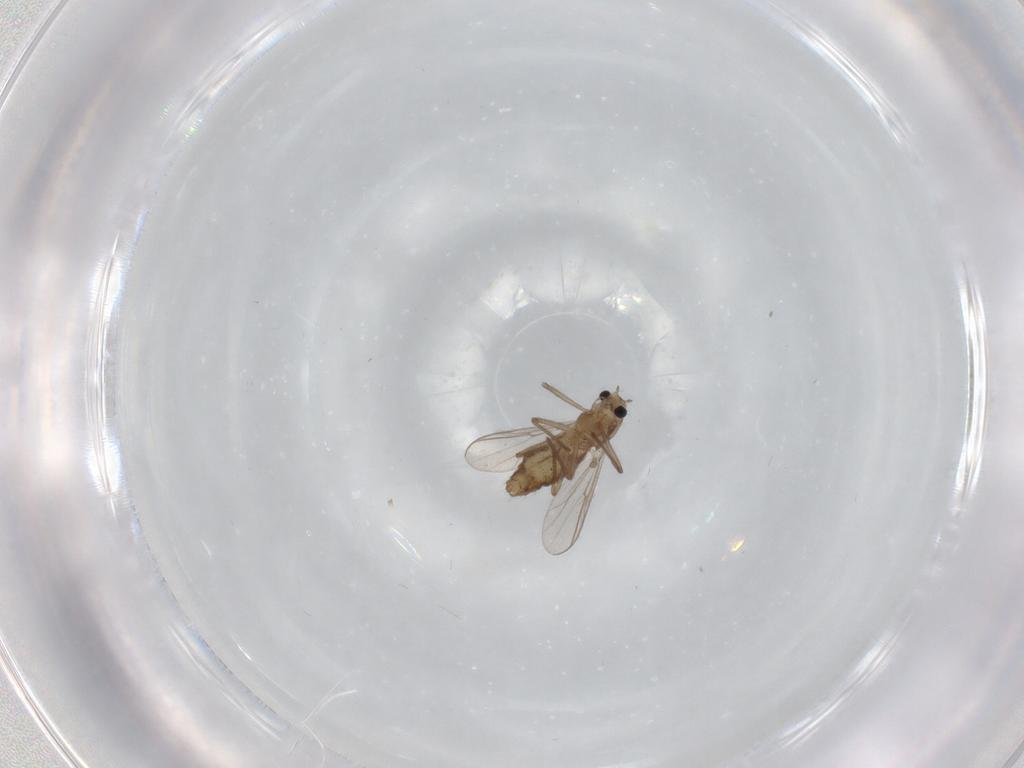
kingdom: Animalia
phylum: Arthropoda
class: Insecta
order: Diptera
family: Chironomidae
